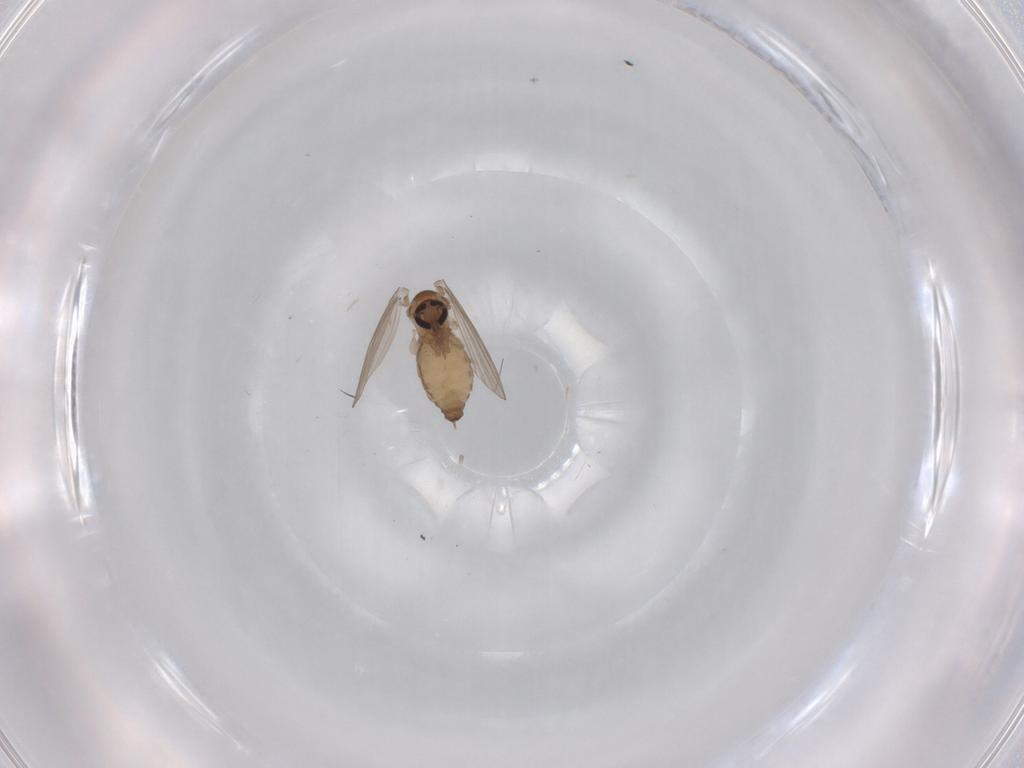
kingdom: Animalia
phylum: Arthropoda
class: Insecta
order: Diptera
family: Psychodidae
